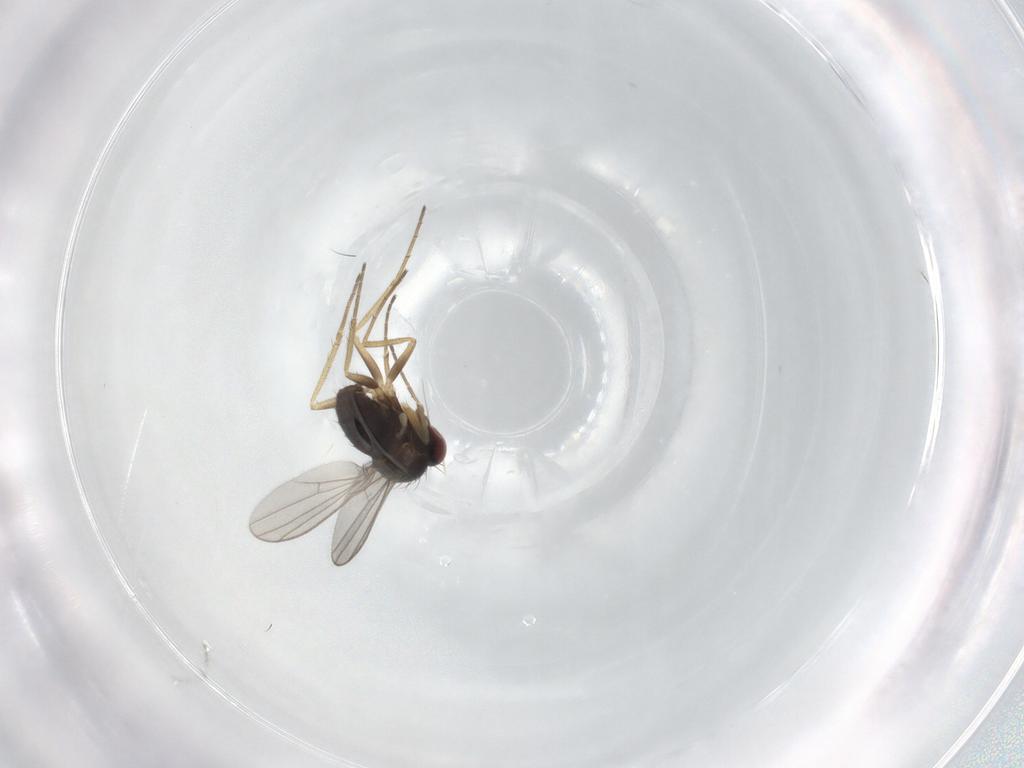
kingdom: Animalia
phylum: Arthropoda
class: Insecta
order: Diptera
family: Dolichopodidae
